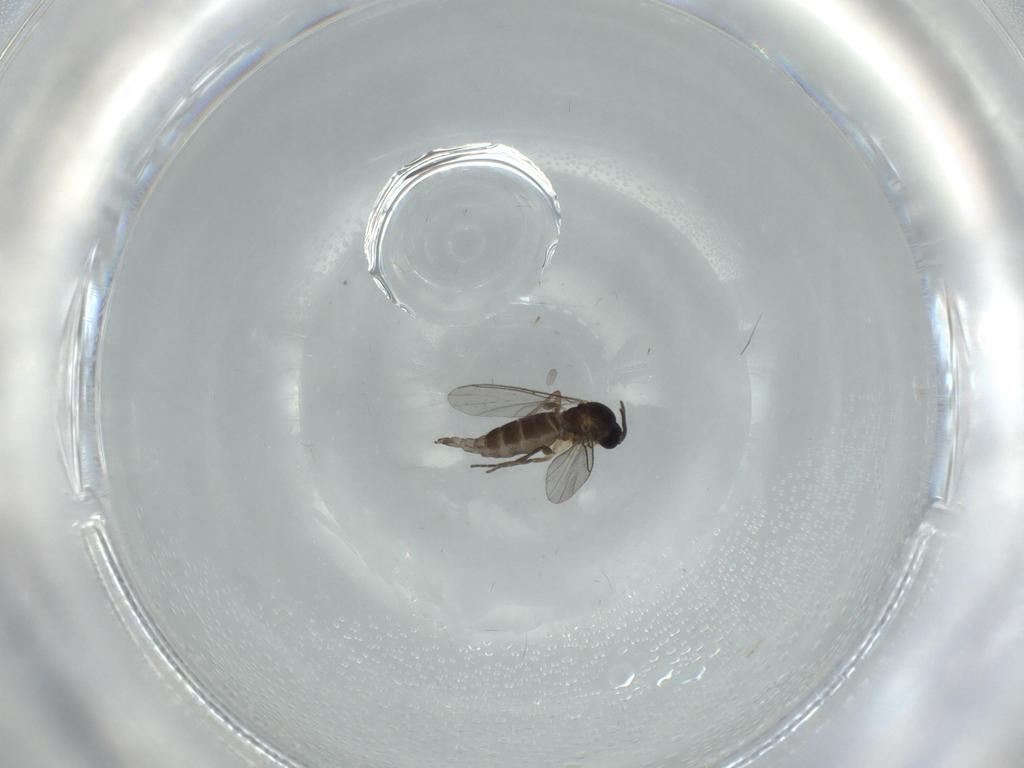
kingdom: Animalia
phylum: Arthropoda
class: Insecta
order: Diptera
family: Sciaridae
